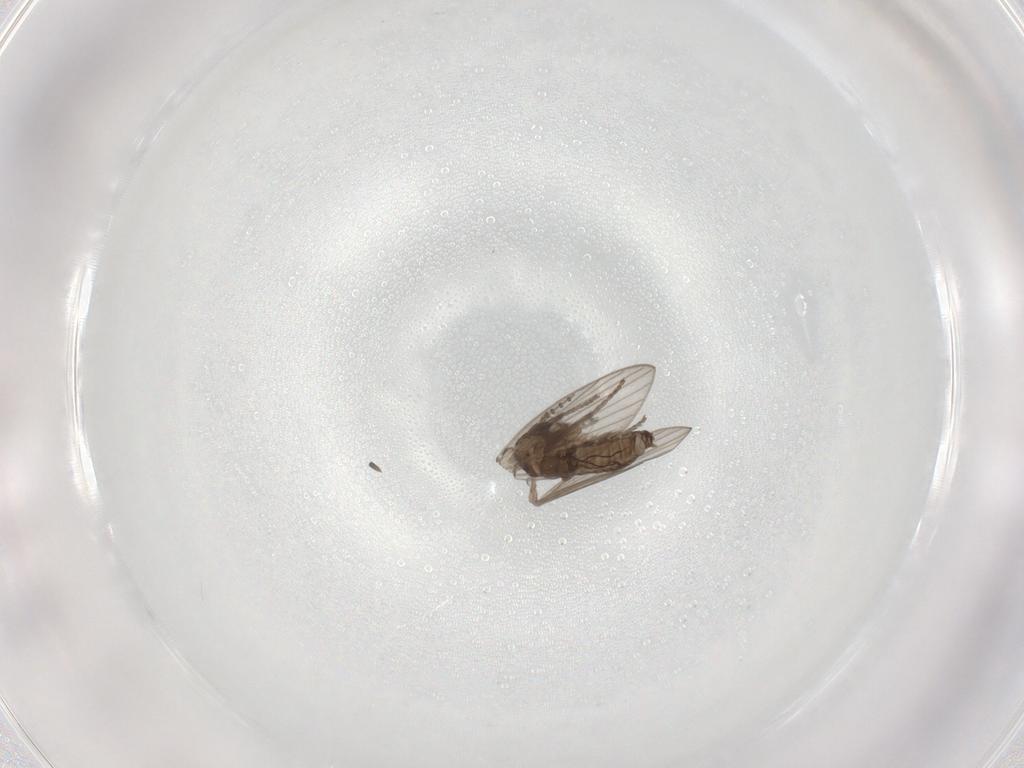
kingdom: Animalia
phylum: Arthropoda
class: Insecta
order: Diptera
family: Psychodidae
